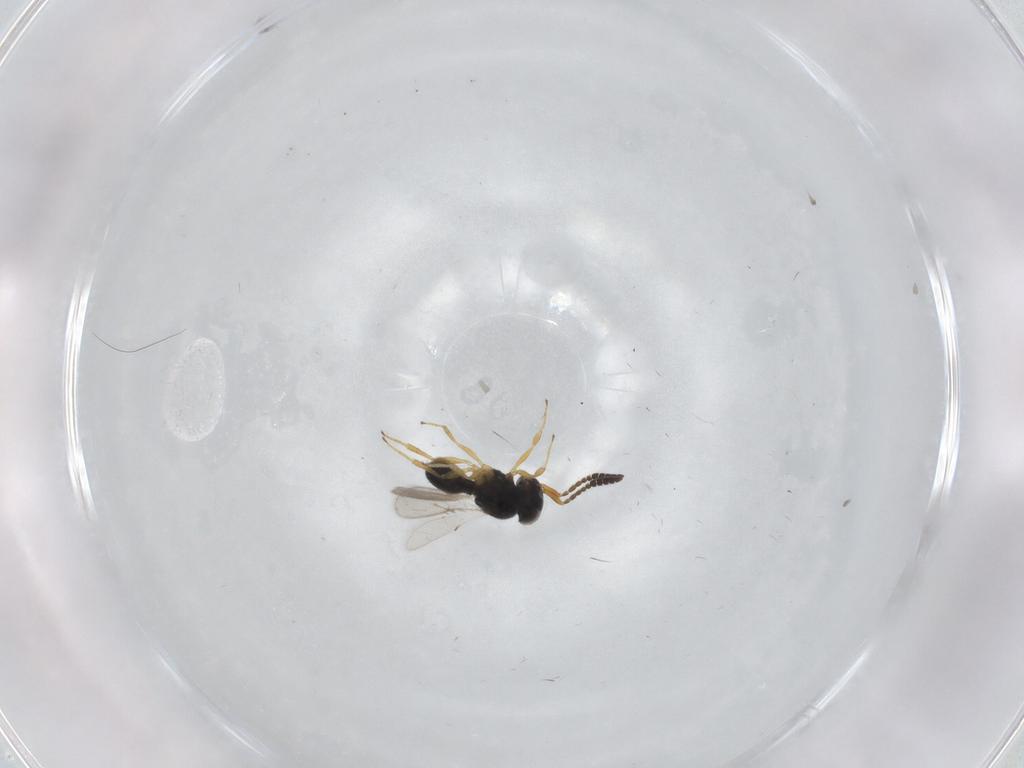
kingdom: Animalia
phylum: Arthropoda
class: Insecta
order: Hymenoptera
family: Scelionidae
